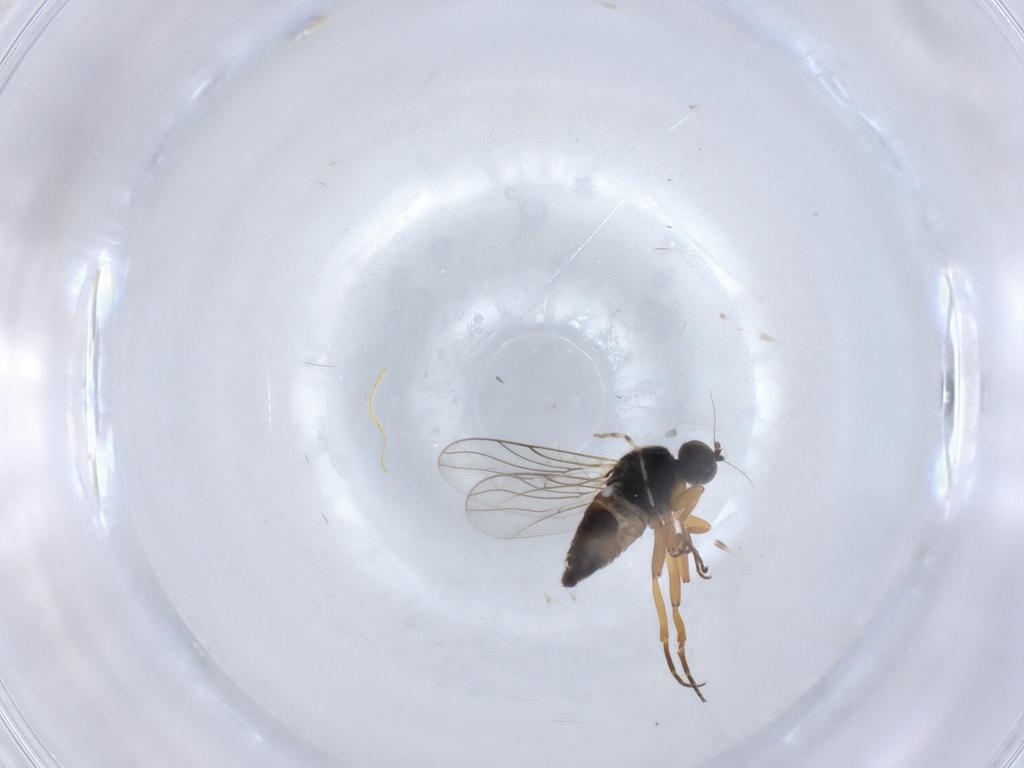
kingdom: Animalia
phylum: Arthropoda
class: Insecta
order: Diptera
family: Hybotidae
